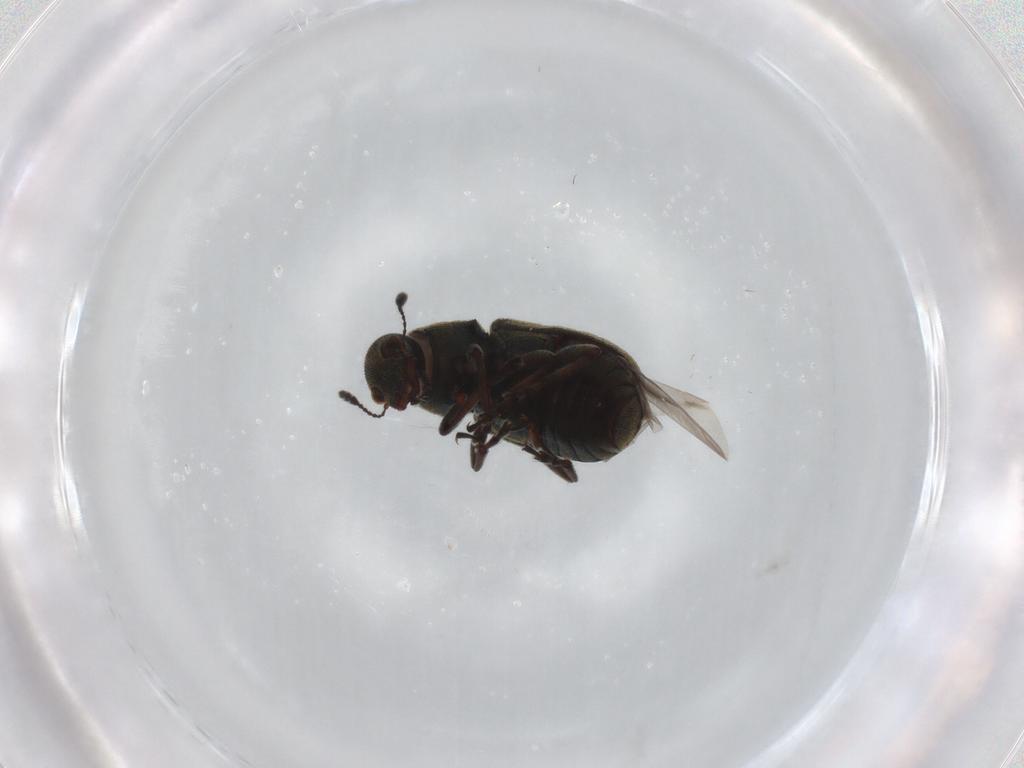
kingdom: Animalia
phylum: Arthropoda
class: Insecta
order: Coleoptera
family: Anthribidae
